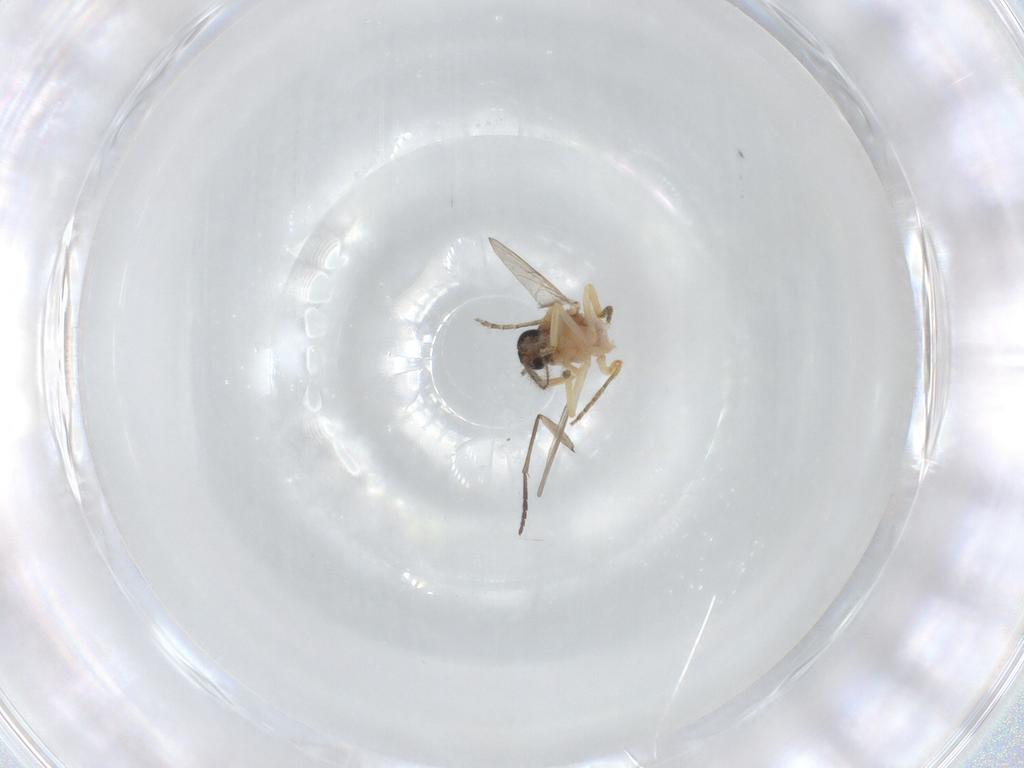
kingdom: Animalia
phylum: Arthropoda
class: Insecta
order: Diptera
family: Ceratopogonidae
